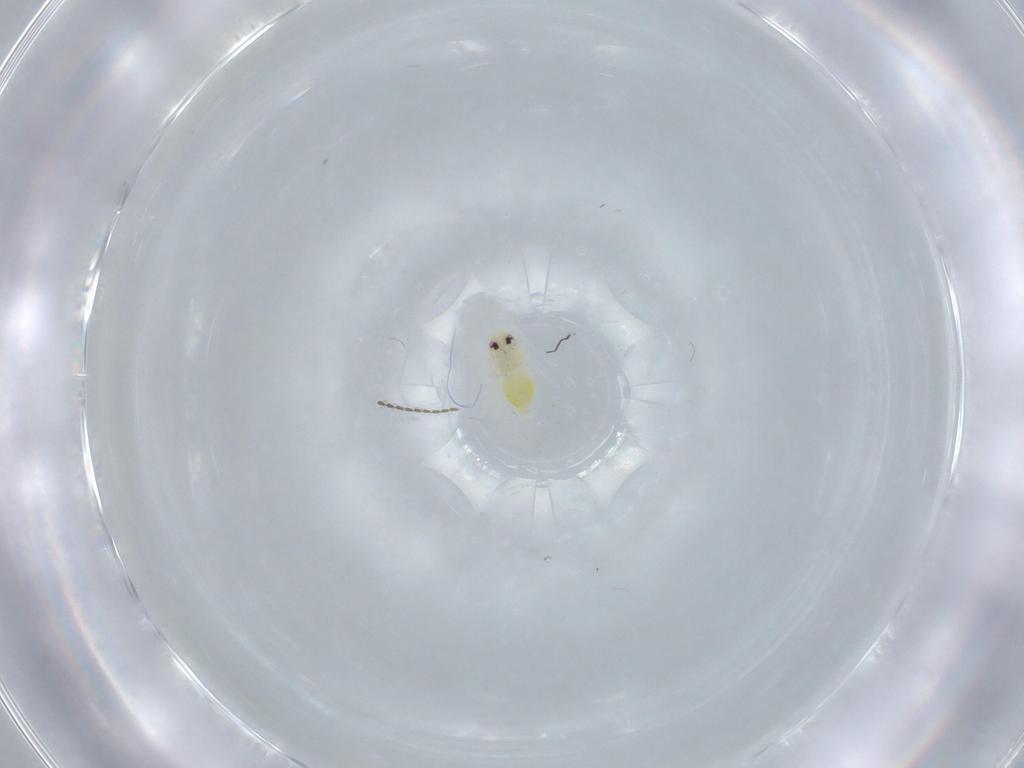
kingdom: Animalia
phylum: Arthropoda
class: Insecta
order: Hemiptera
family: Aleyrodidae
